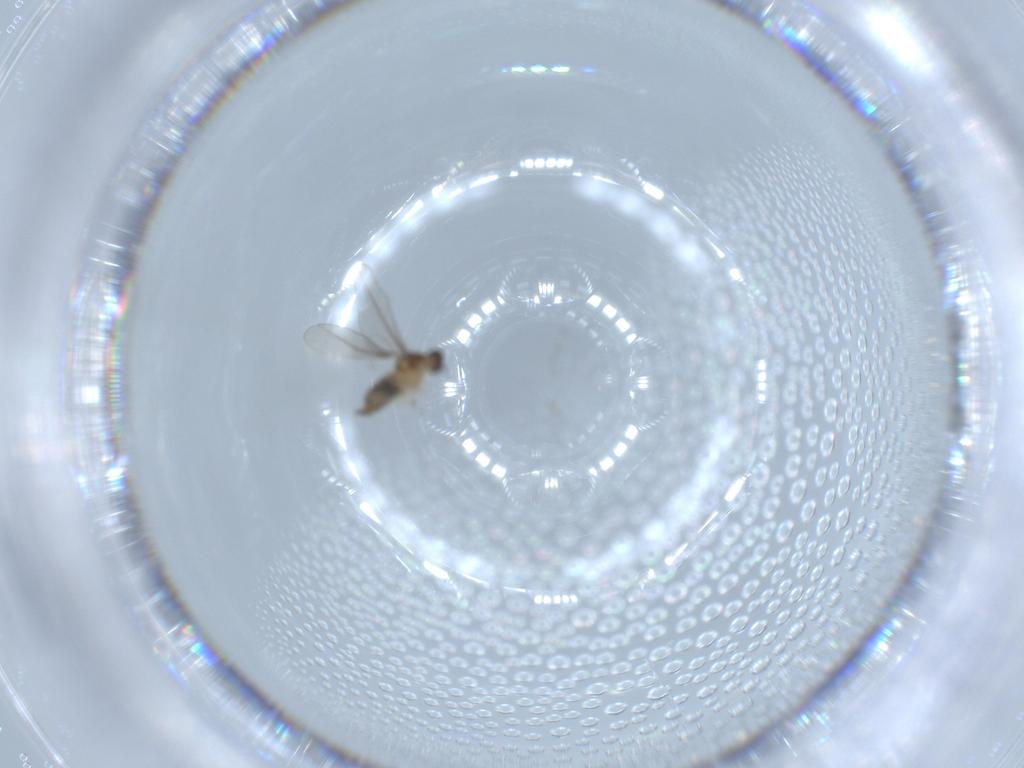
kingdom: Animalia
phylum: Arthropoda
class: Insecta
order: Diptera
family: Cecidomyiidae
